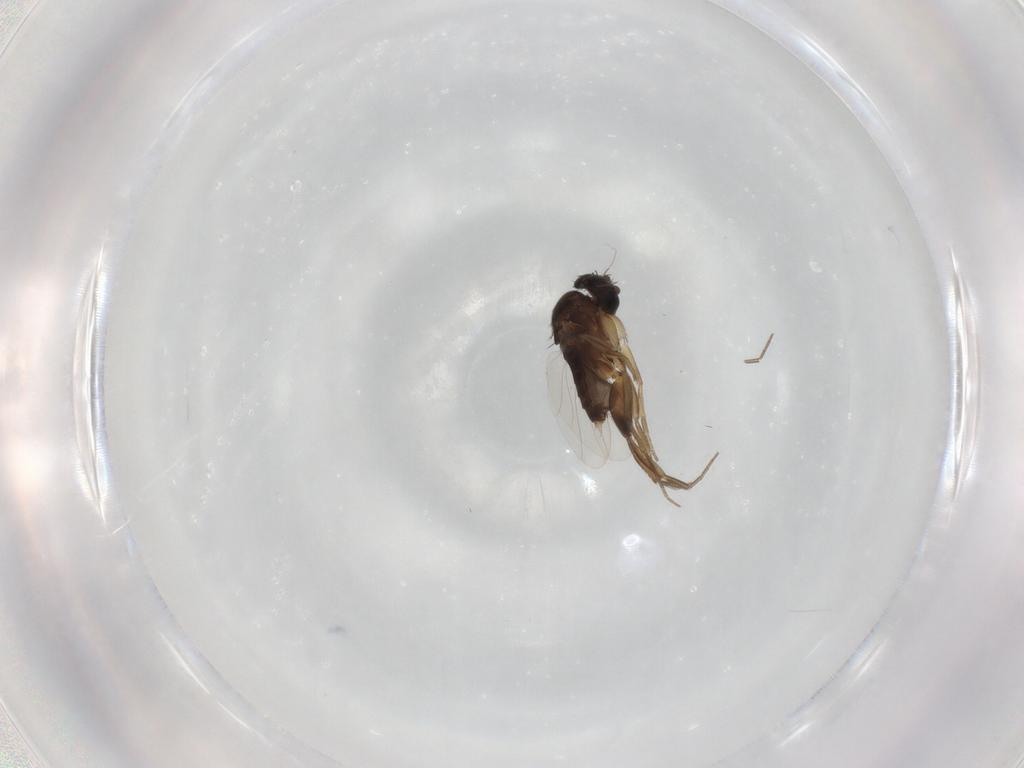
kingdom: Animalia
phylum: Arthropoda
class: Insecta
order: Diptera
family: Phoridae
